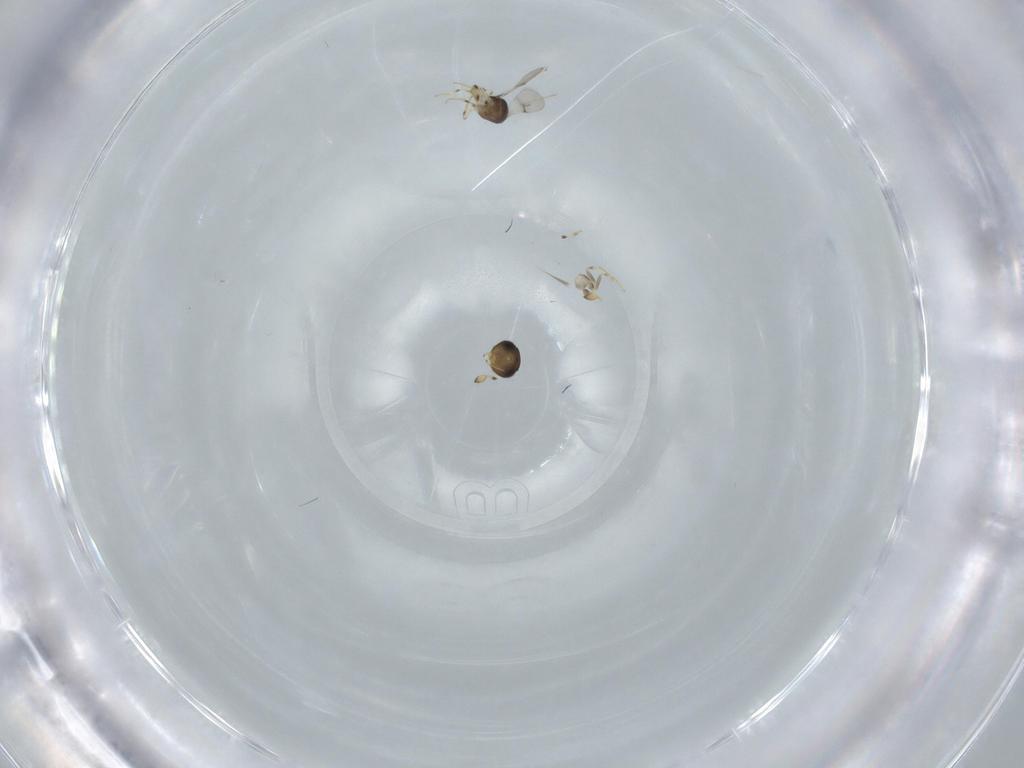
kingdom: Animalia
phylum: Arthropoda
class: Insecta
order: Hymenoptera
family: Scelionidae
